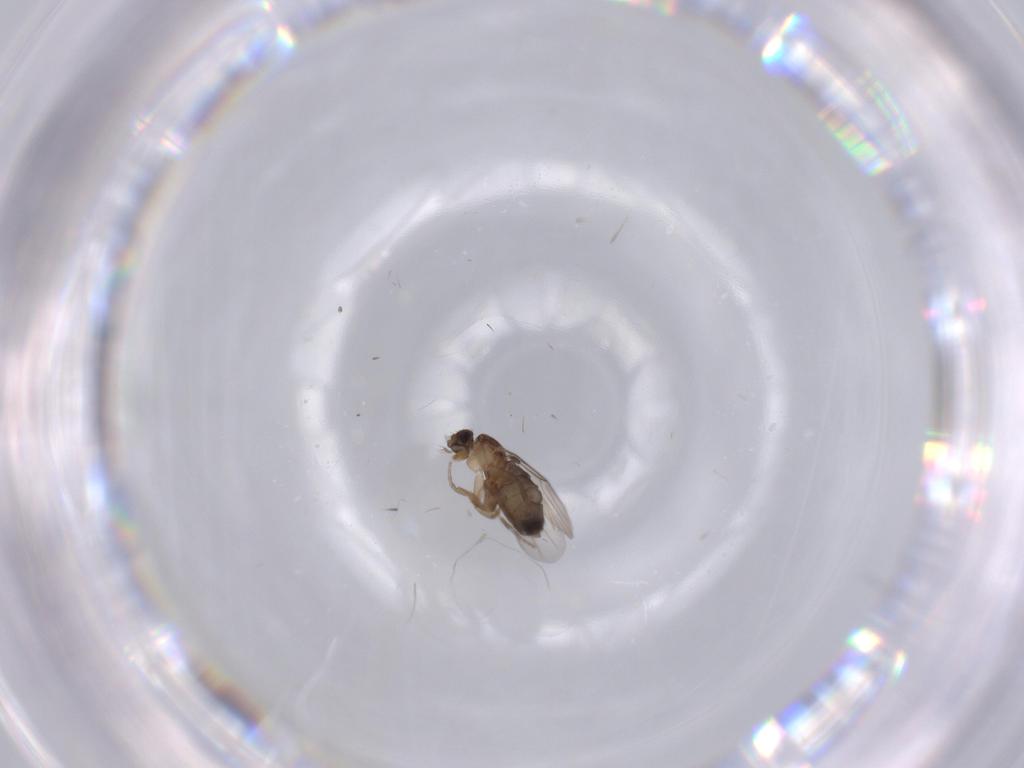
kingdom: Animalia
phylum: Arthropoda
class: Insecta
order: Diptera
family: Phoridae
